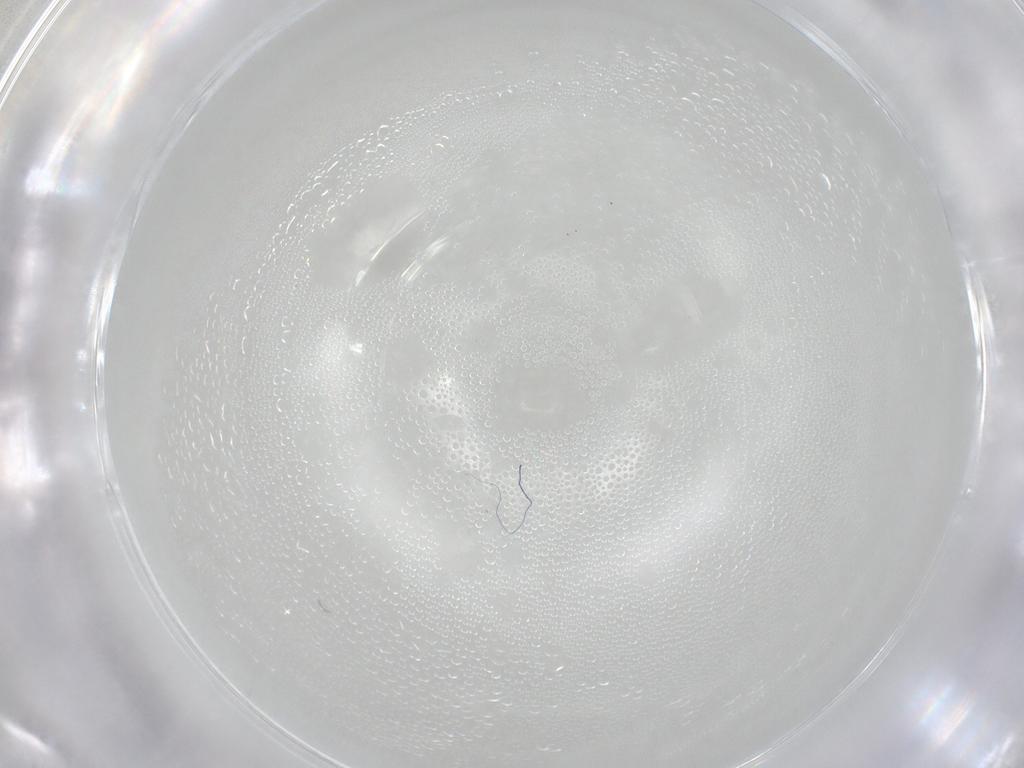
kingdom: Animalia
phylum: Arthropoda
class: Insecta
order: Diptera
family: Psychodidae
